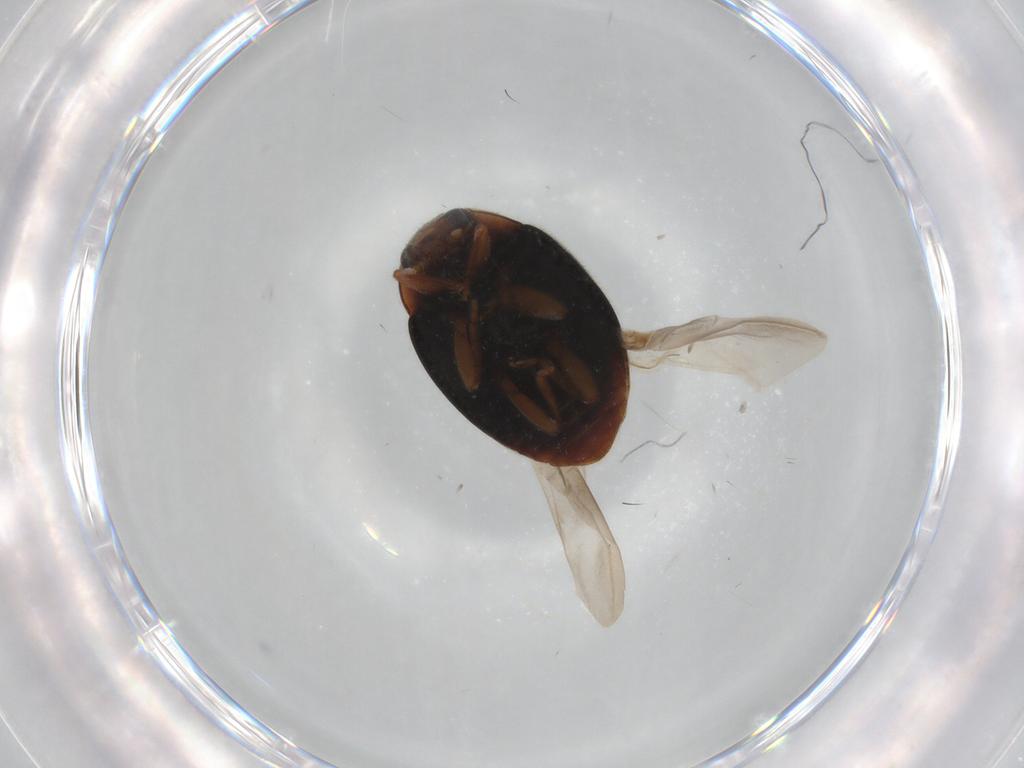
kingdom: Animalia
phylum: Arthropoda
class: Insecta
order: Coleoptera
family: Coccinellidae
